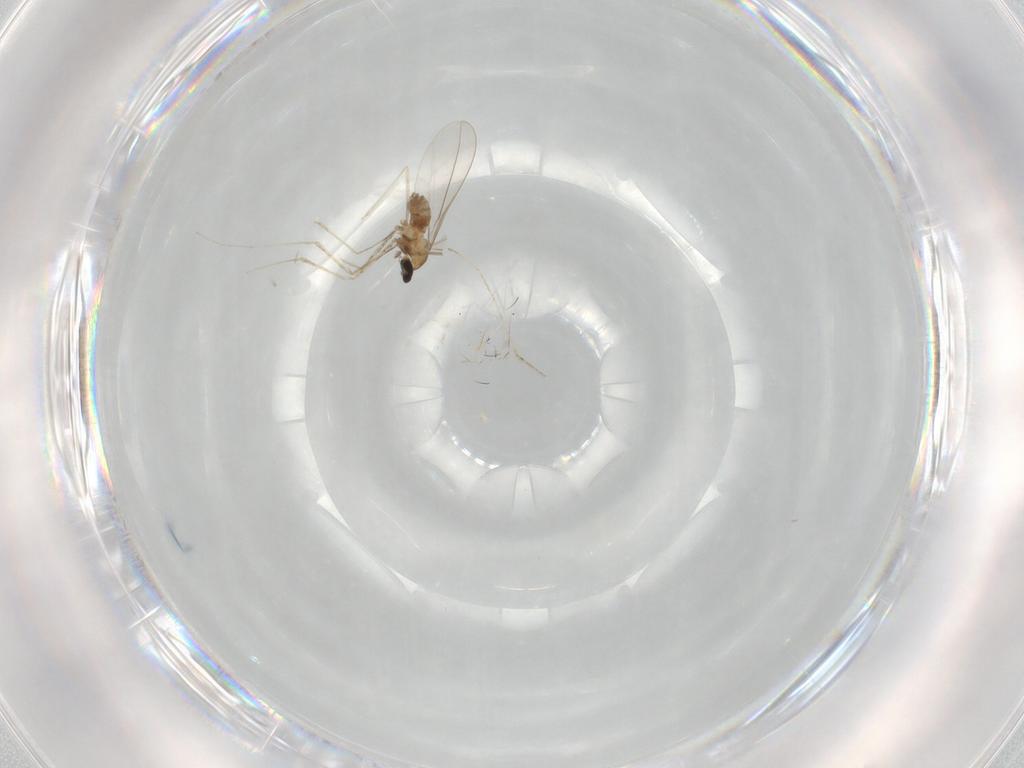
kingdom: Animalia
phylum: Arthropoda
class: Insecta
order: Diptera
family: Cecidomyiidae
